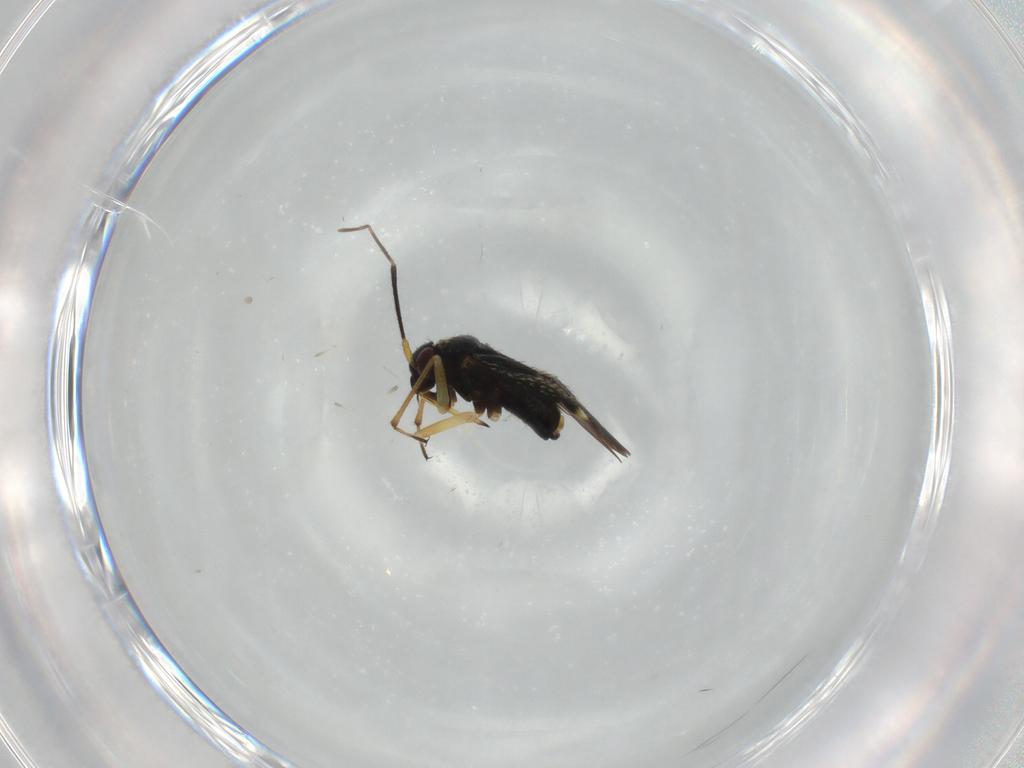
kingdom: Animalia
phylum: Arthropoda
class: Insecta
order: Hemiptera
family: Miridae
